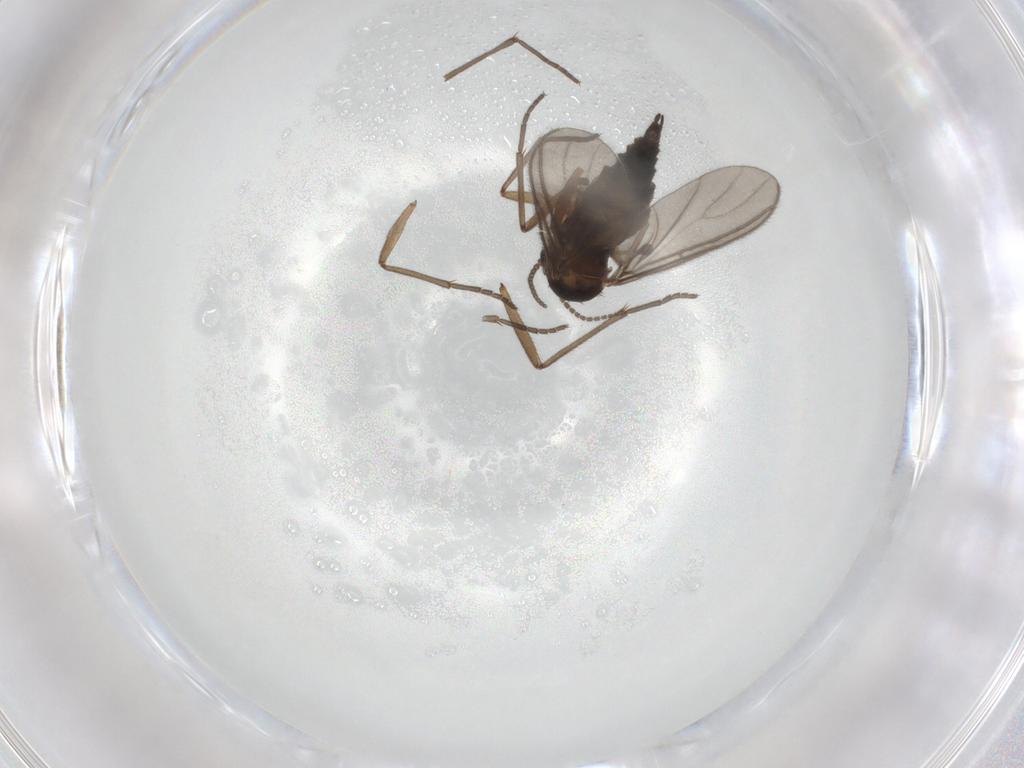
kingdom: Animalia
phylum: Arthropoda
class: Insecta
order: Diptera
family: Sciaridae
